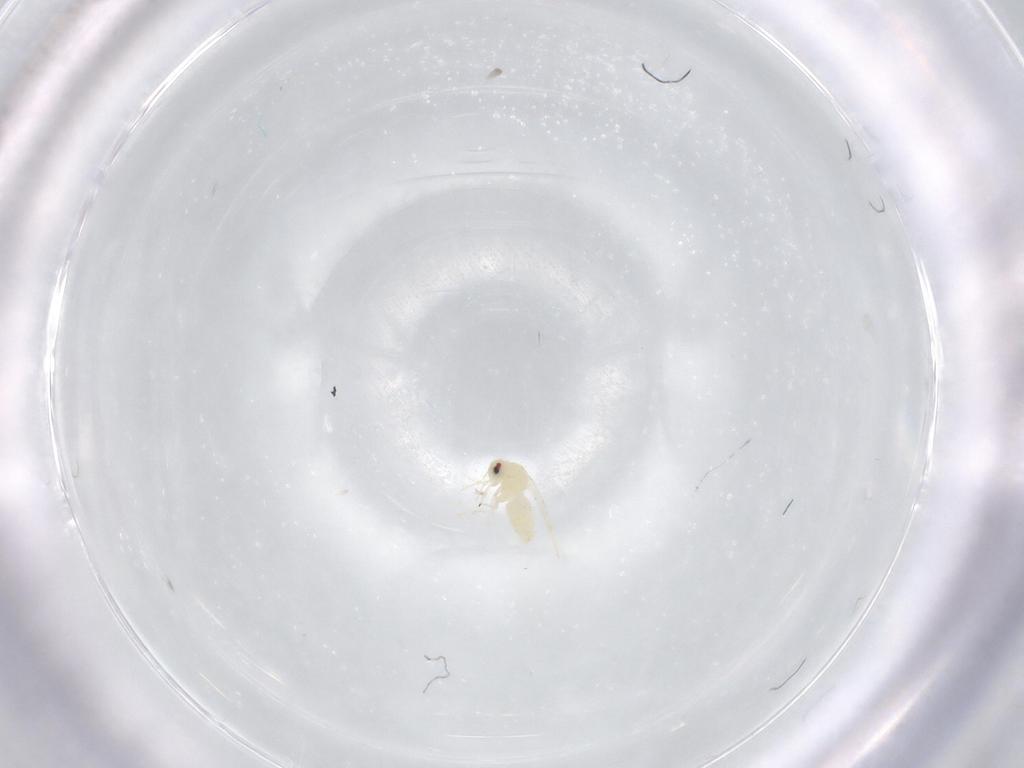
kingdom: Animalia
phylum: Arthropoda
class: Insecta
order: Hemiptera
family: Aleyrodidae
